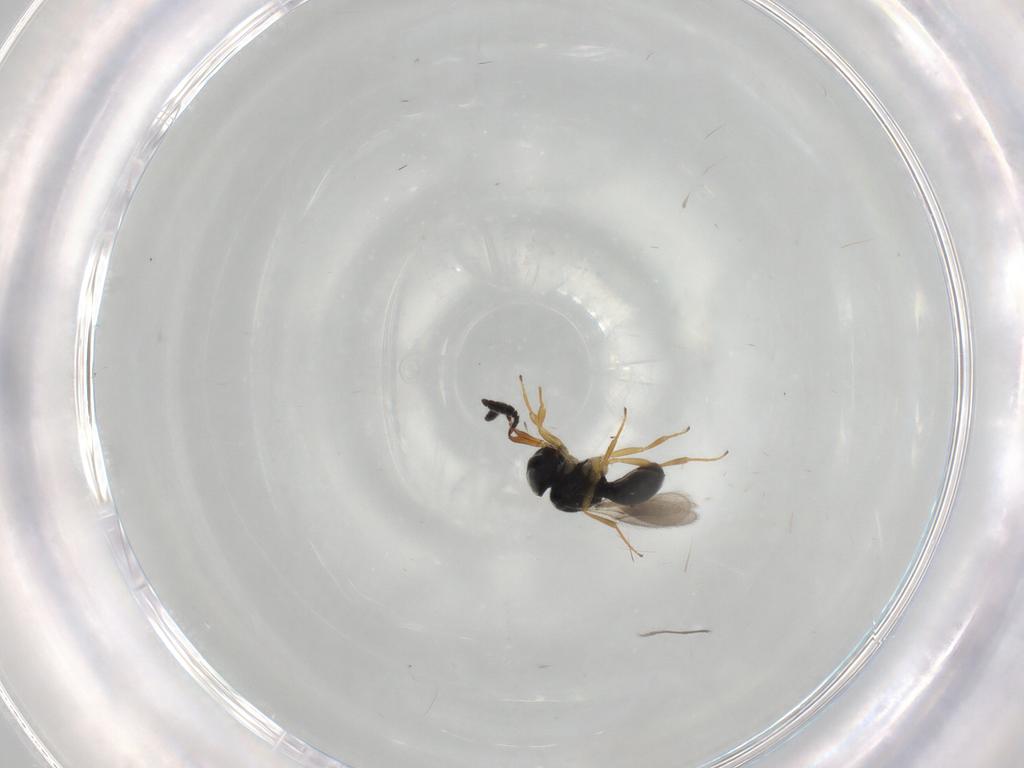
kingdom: Animalia
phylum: Arthropoda
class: Insecta
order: Hymenoptera
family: Scelionidae
